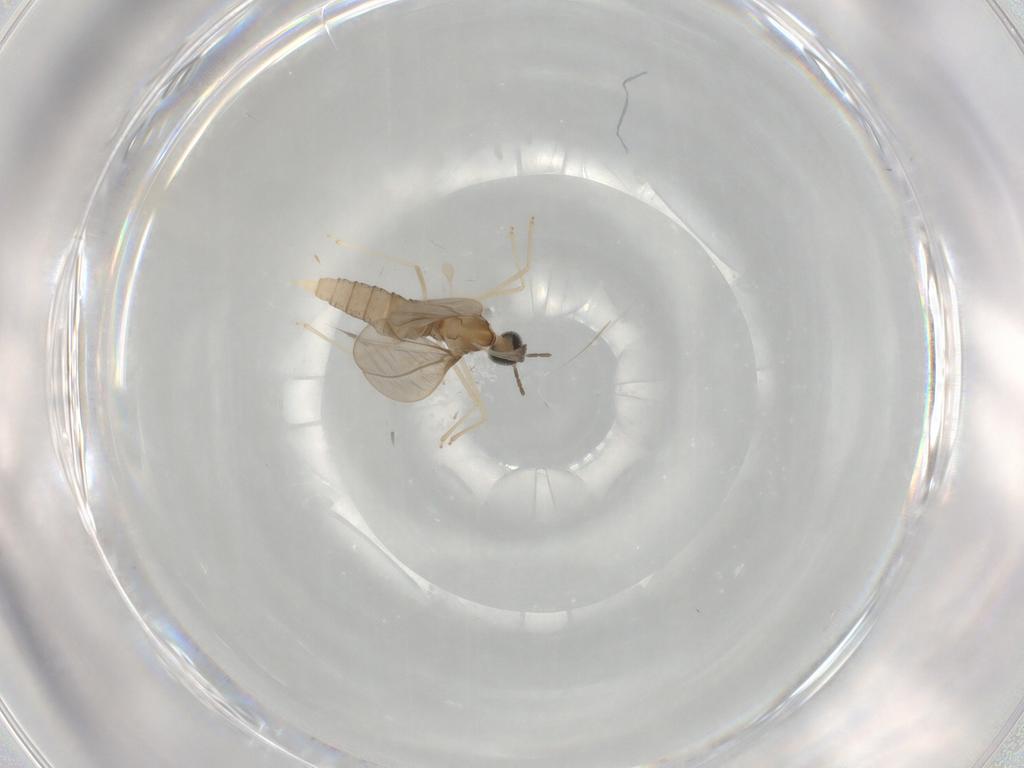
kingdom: Animalia
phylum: Arthropoda
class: Insecta
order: Diptera
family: Cecidomyiidae
